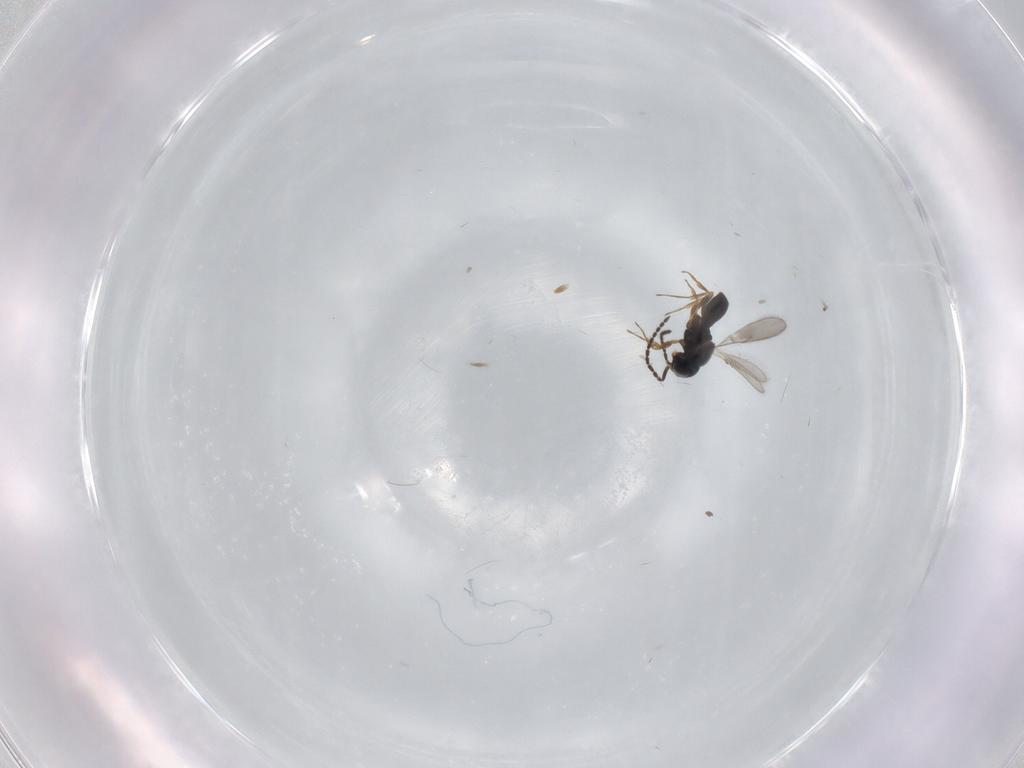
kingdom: Animalia
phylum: Arthropoda
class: Insecta
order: Hymenoptera
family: Scelionidae
